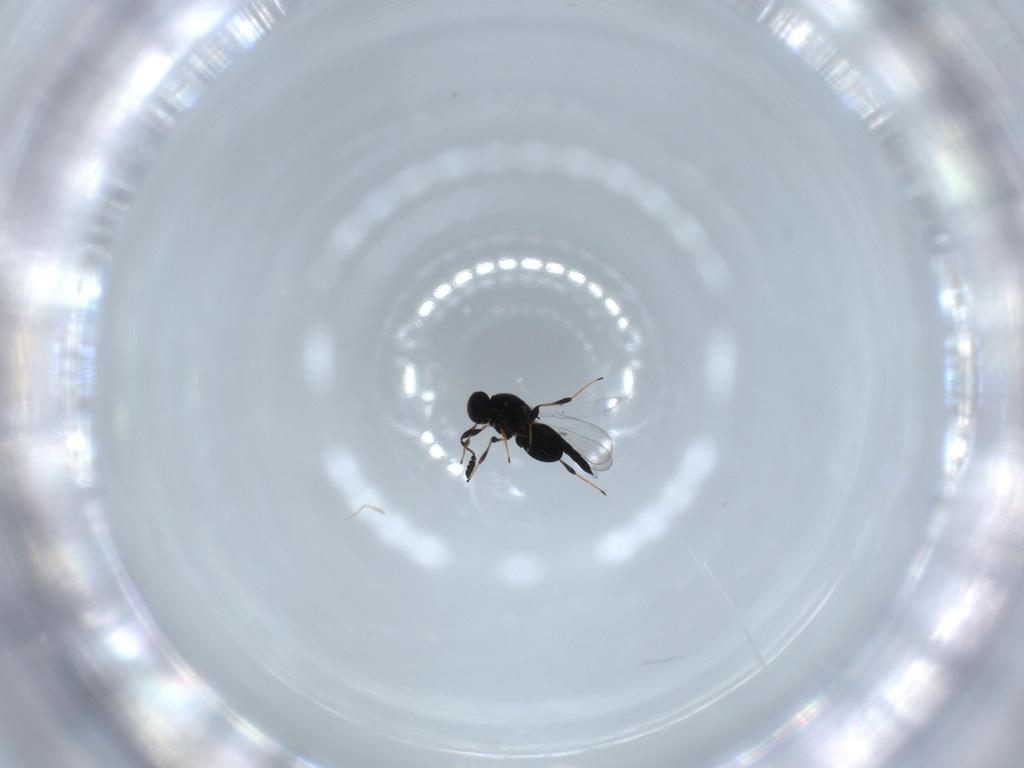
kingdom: Animalia
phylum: Arthropoda
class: Insecta
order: Hymenoptera
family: Platygastridae
